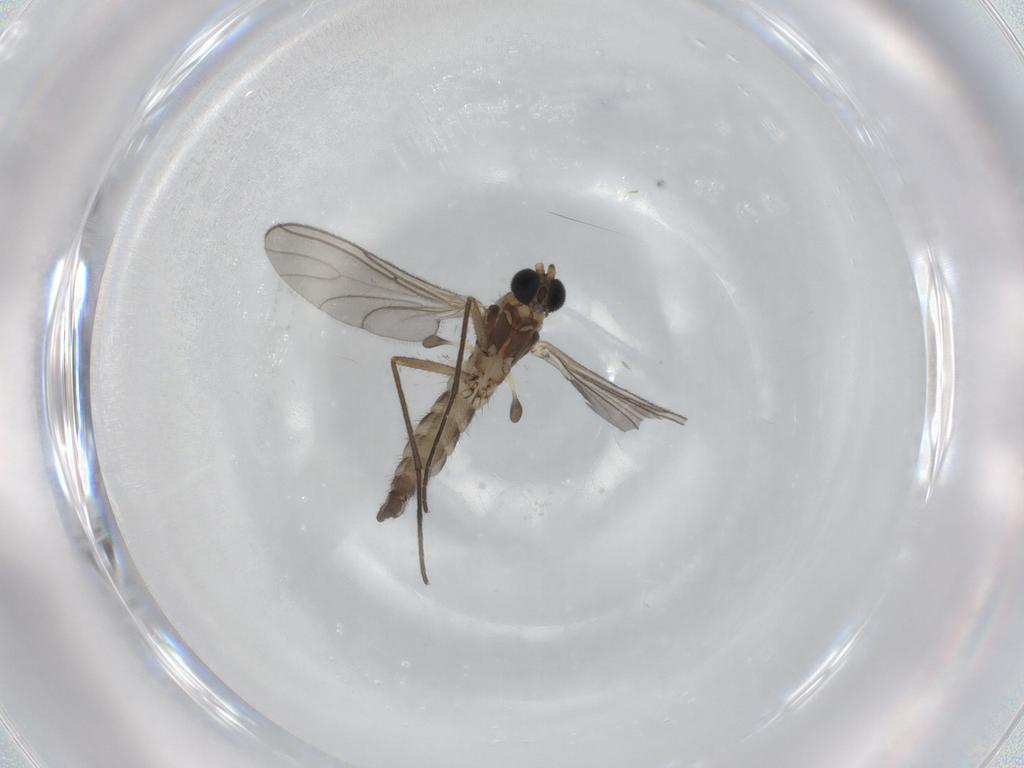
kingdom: Animalia
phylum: Arthropoda
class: Insecta
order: Diptera
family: Sciaridae
